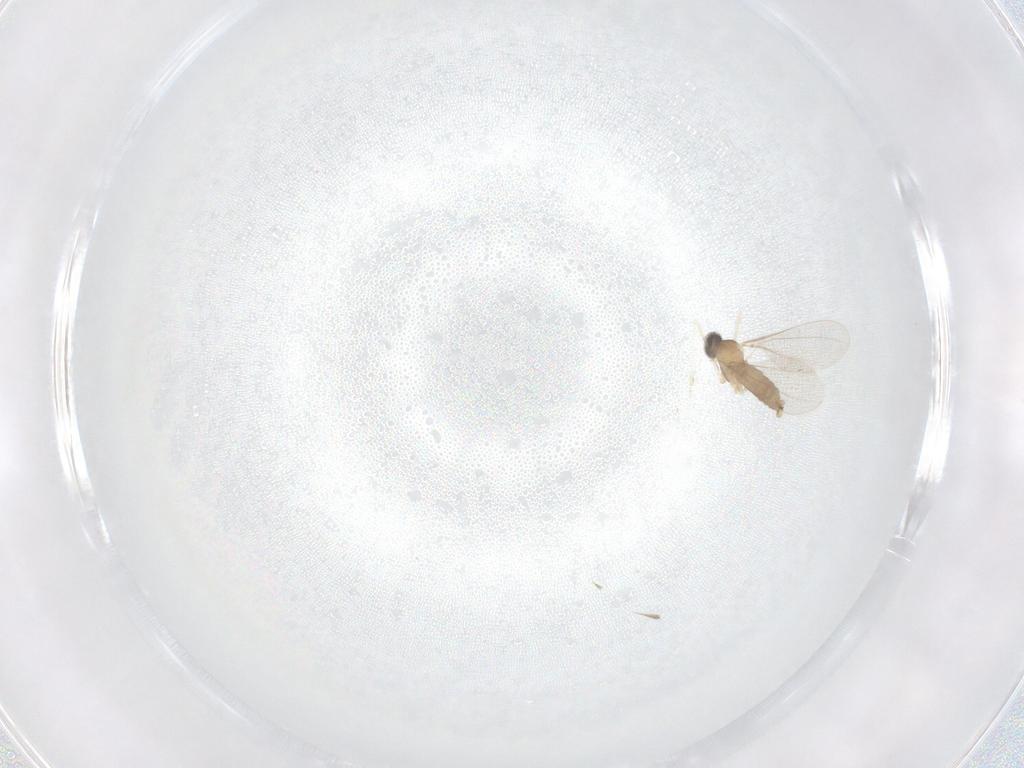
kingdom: Animalia
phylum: Arthropoda
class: Insecta
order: Diptera
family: Cecidomyiidae
